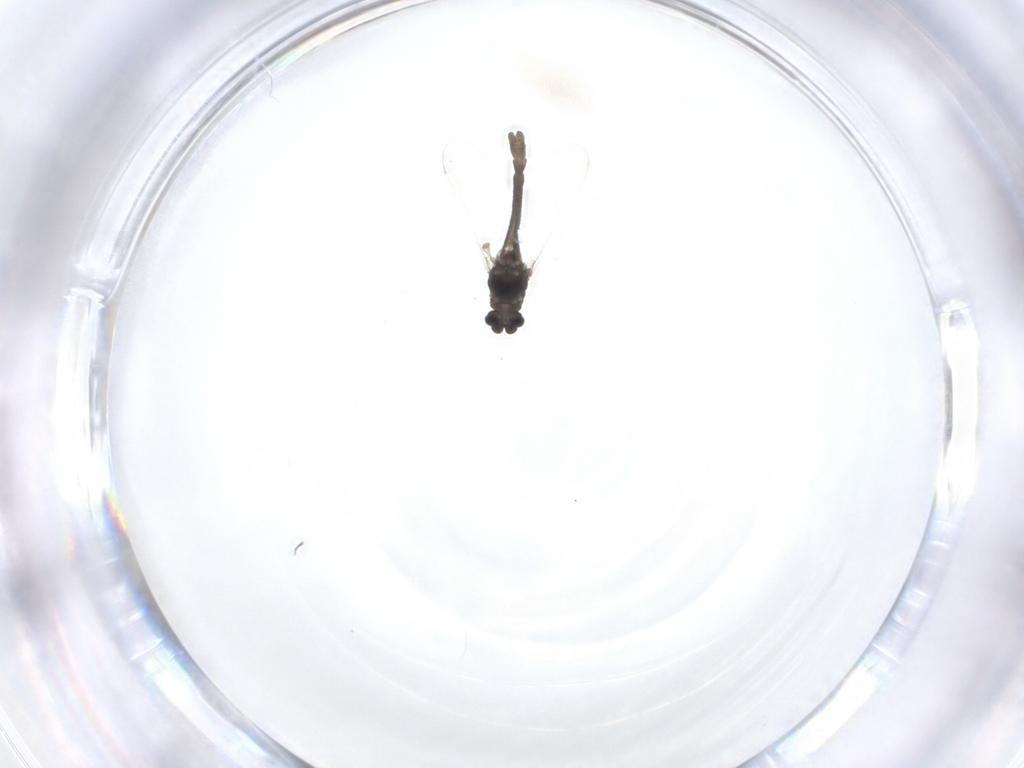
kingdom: Animalia
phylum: Arthropoda
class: Insecta
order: Diptera
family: Chironomidae
